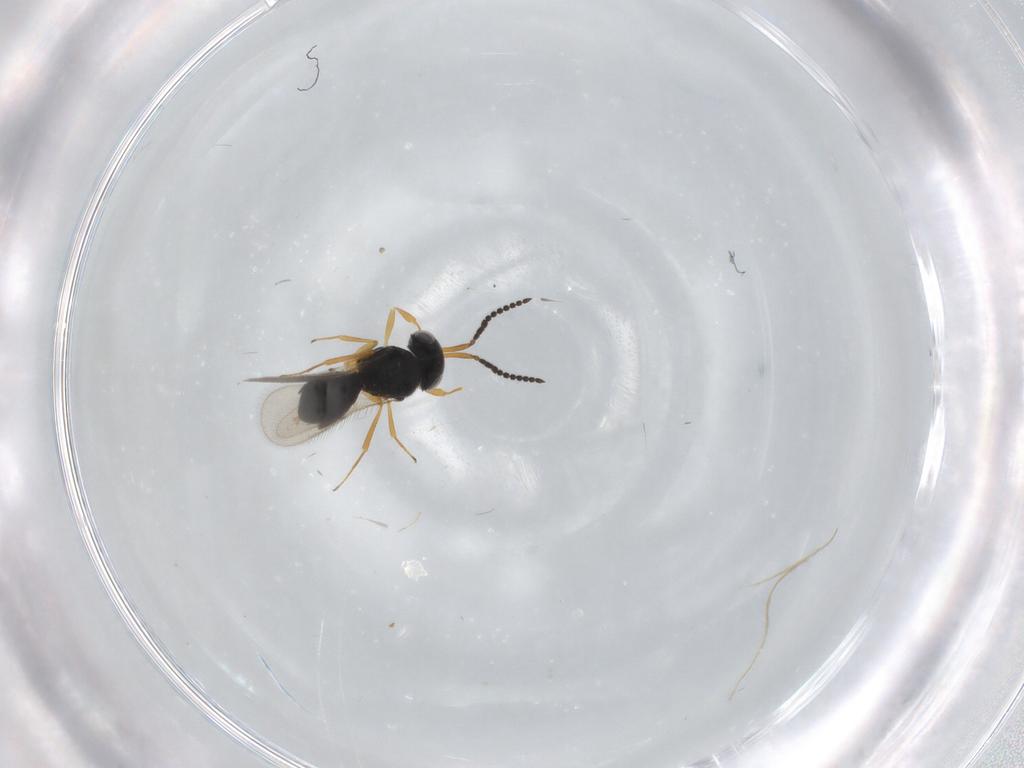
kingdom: Animalia
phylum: Arthropoda
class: Insecta
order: Hymenoptera
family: Scelionidae
